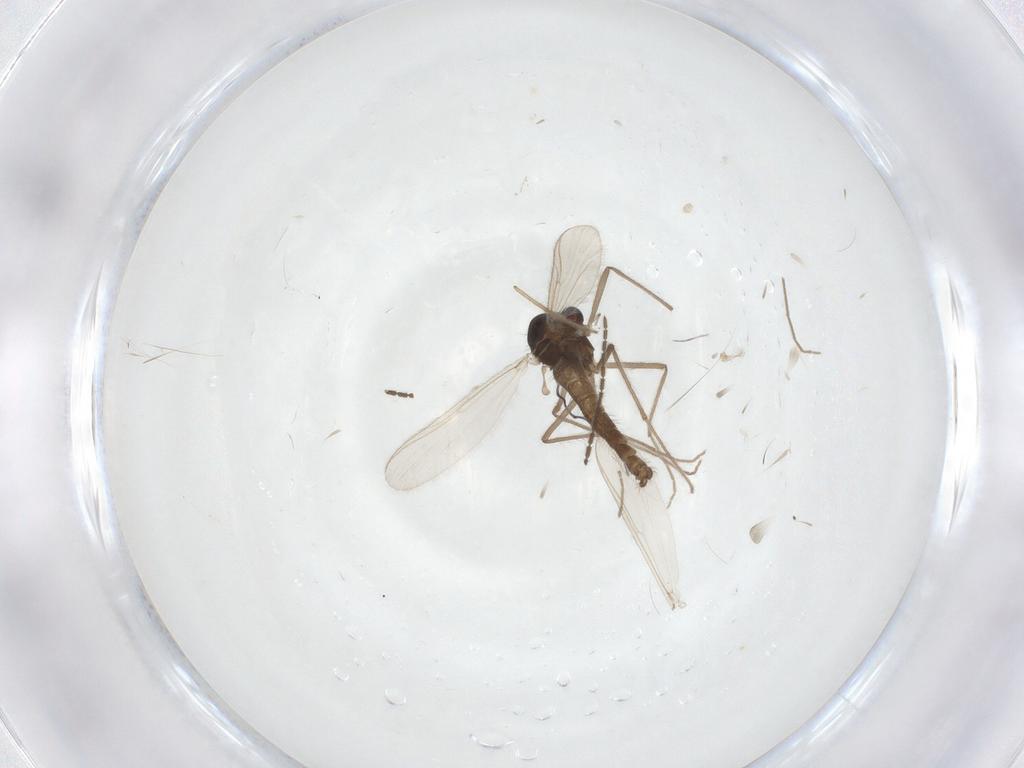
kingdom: Animalia
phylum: Arthropoda
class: Insecta
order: Diptera
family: Chironomidae
